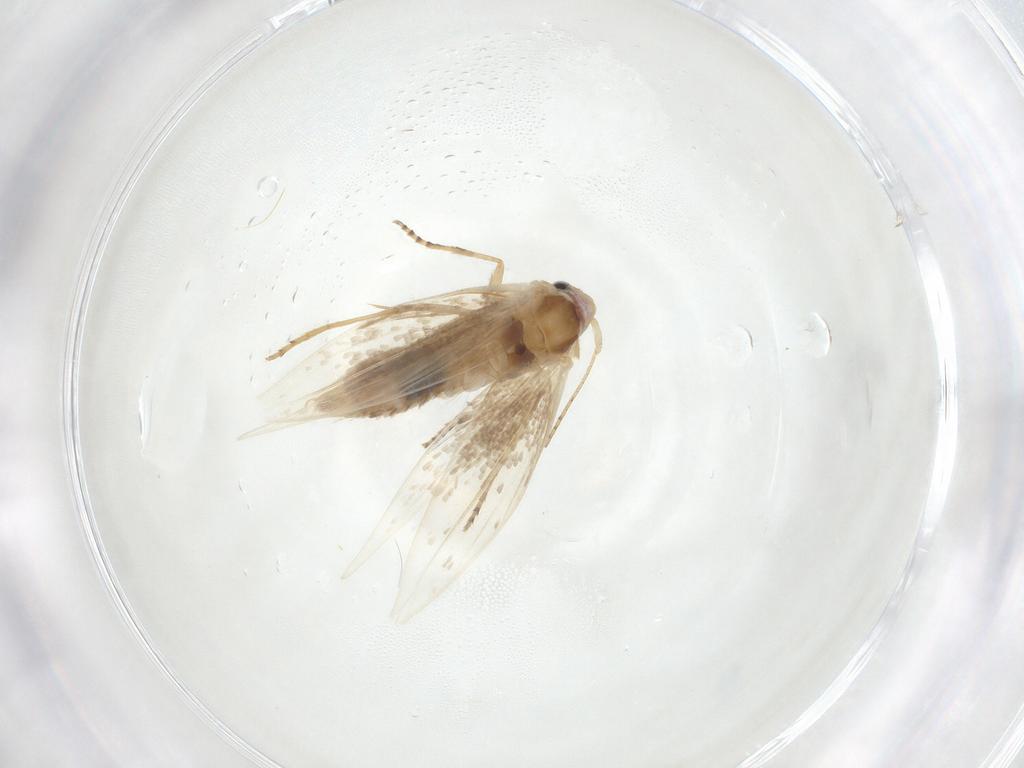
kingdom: Animalia
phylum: Arthropoda
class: Insecta
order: Lepidoptera
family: Bucculatricidae
